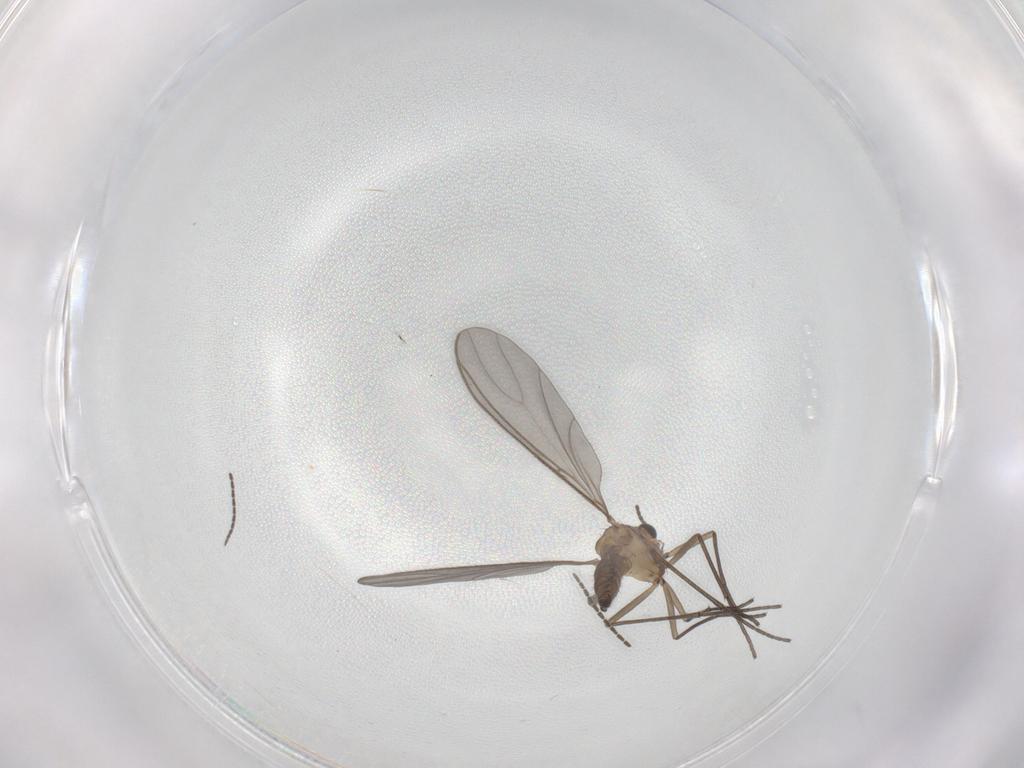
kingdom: Animalia
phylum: Arthropoda
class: Insecta
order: Diptera
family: Sciaridae
